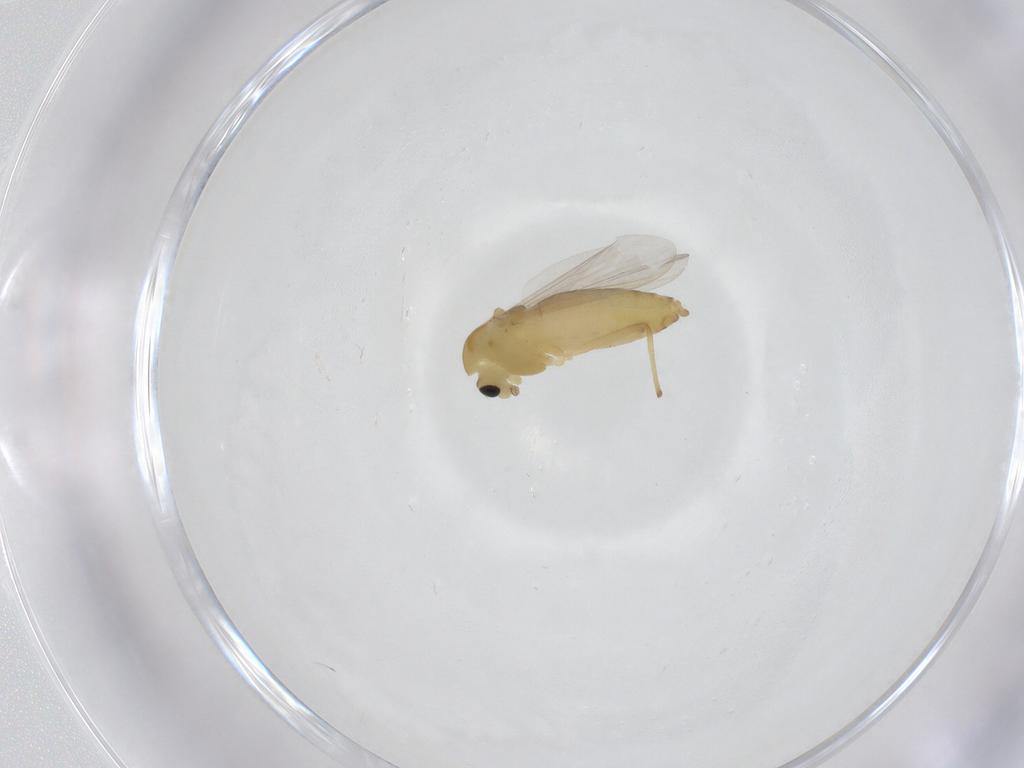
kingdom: Animalia
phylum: Arthropoda
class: Insecta
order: Diptera
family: Chironomidae
